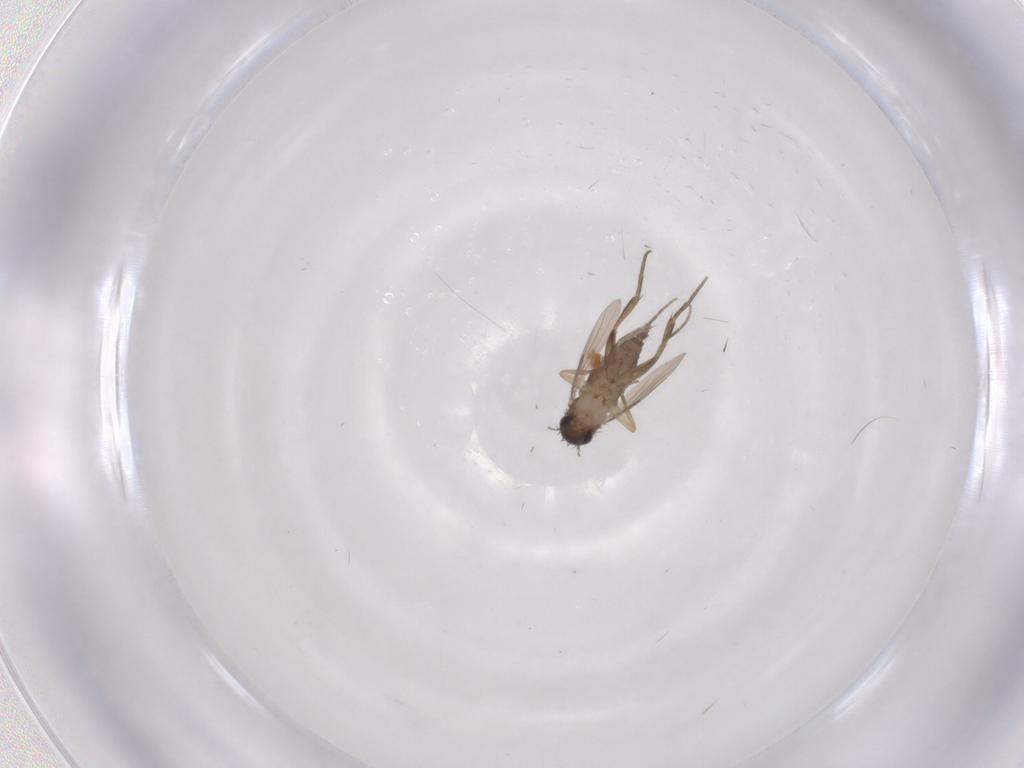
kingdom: Animalia
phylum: Arthropoda
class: Insecta
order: Diptera
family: Phoridae
